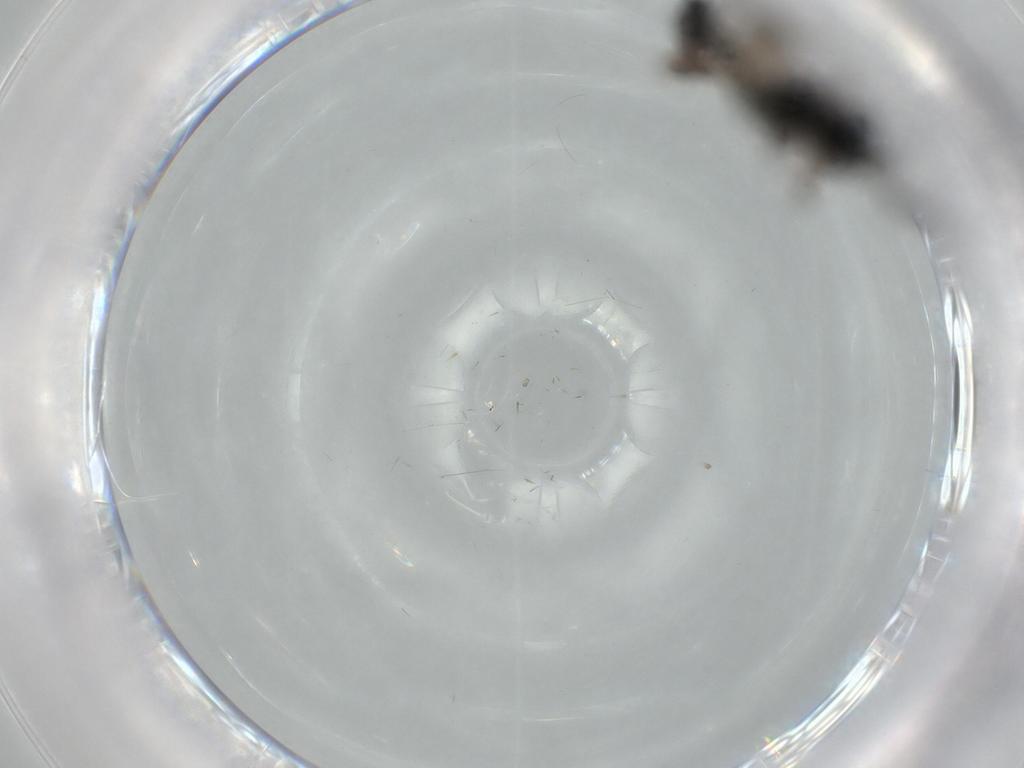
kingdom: Animalia
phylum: Arthropoda
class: Insecta
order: Hymenoptera
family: Braconidae
